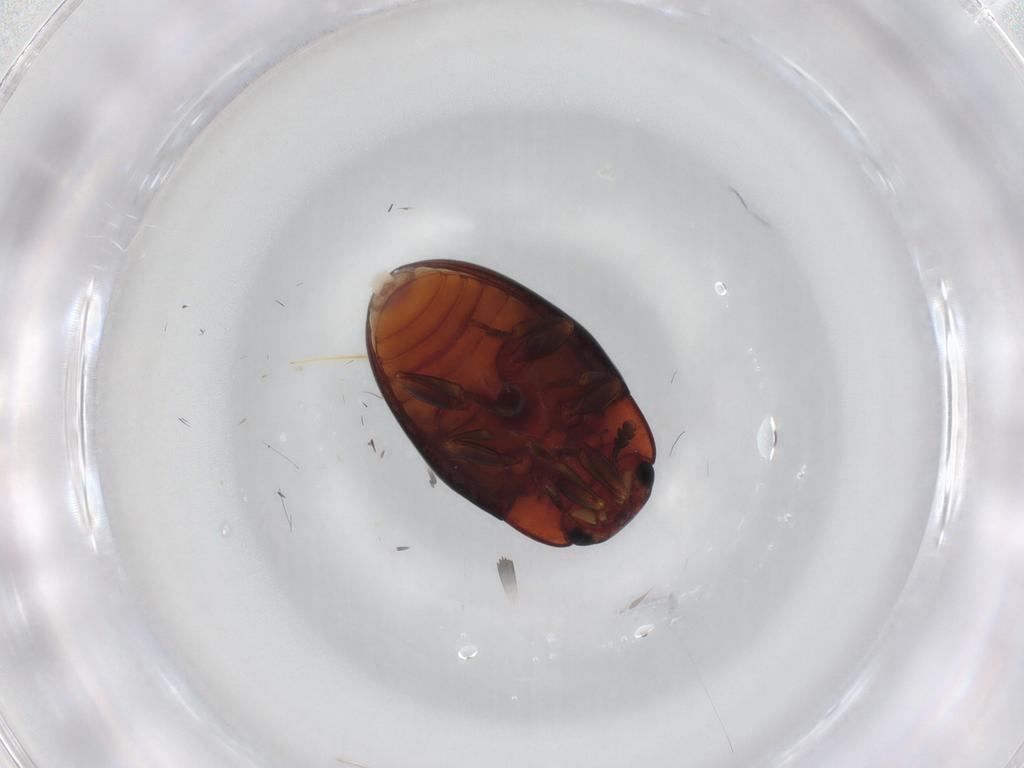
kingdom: Animalia
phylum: Arthropoda
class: Insecta
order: Coleoptera
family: Erotylidae
